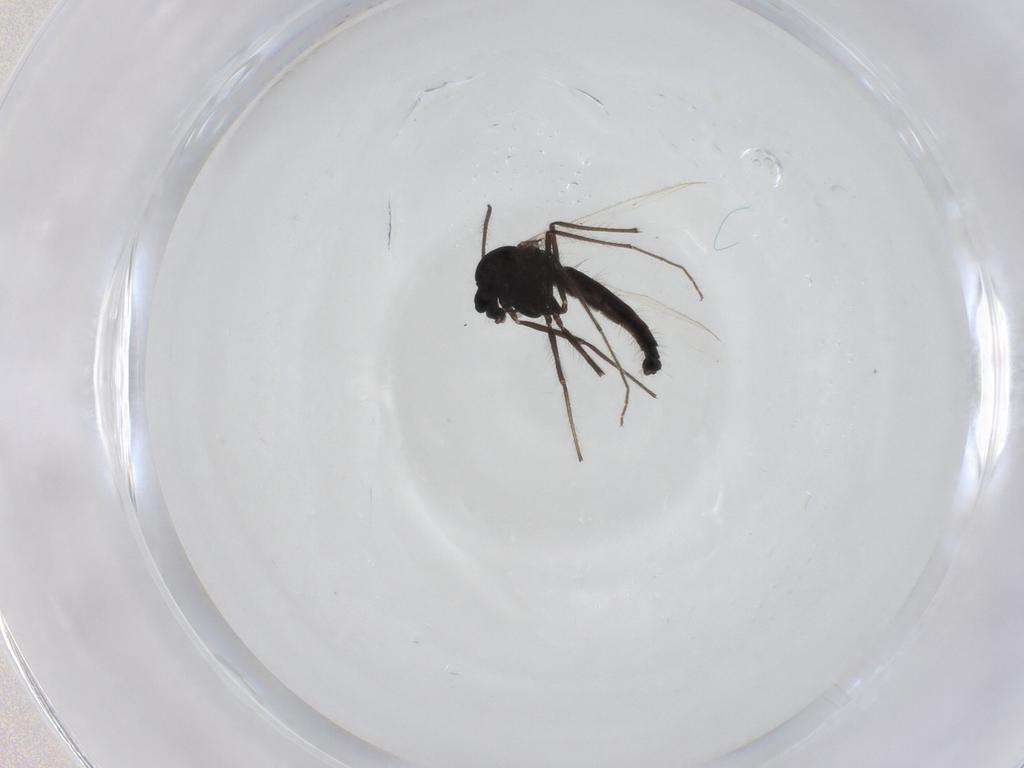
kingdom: Animalia
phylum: Arthropoda
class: Insecta
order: Diptera
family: Chironomidae
